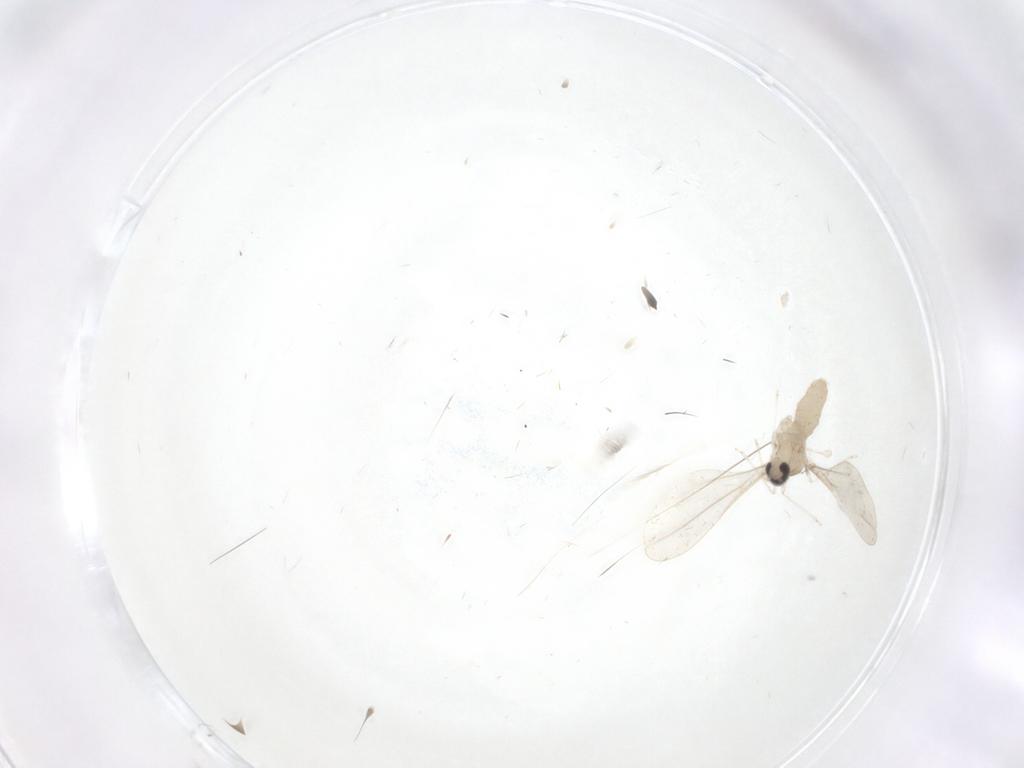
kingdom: Animalia
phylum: Arthropoda
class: Insecta
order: Diptera
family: Cecidomyiidae
